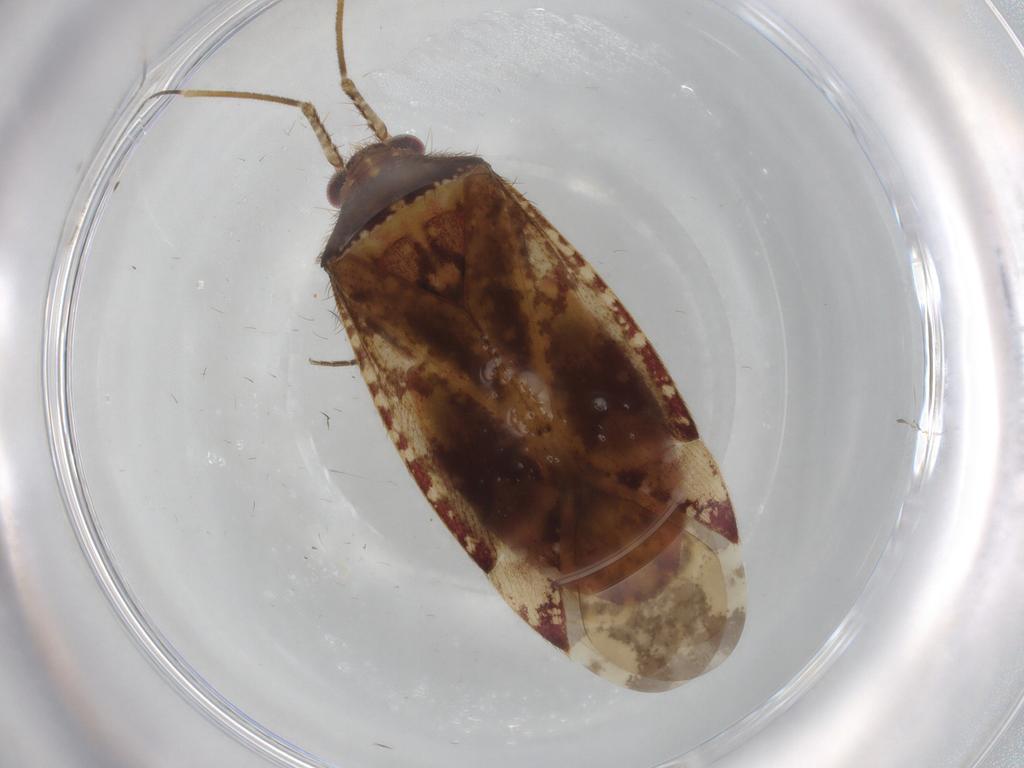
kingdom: Animalia
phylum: Arthropoda
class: Insecta
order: Hemiptera
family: Miridae
